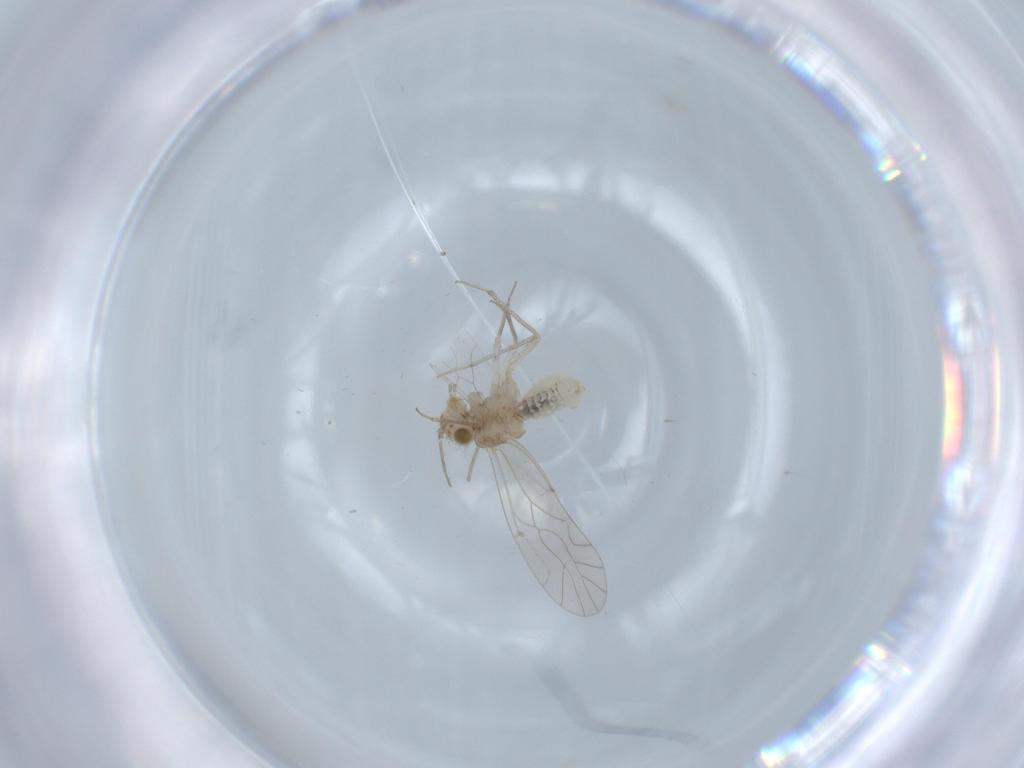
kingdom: Animalia
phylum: Arthropoda
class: Insecta
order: Psocodea
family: Lachesillidae
